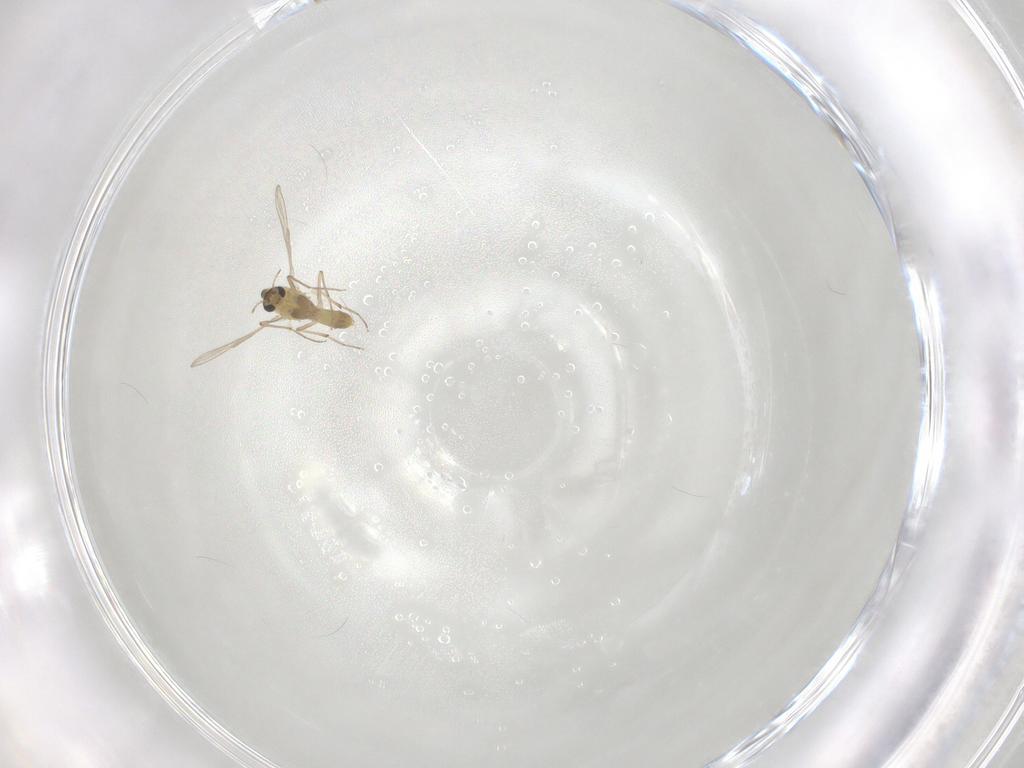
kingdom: Animalia
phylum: Arthropoda
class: Insecta
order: Diptera
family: Chironomidae
